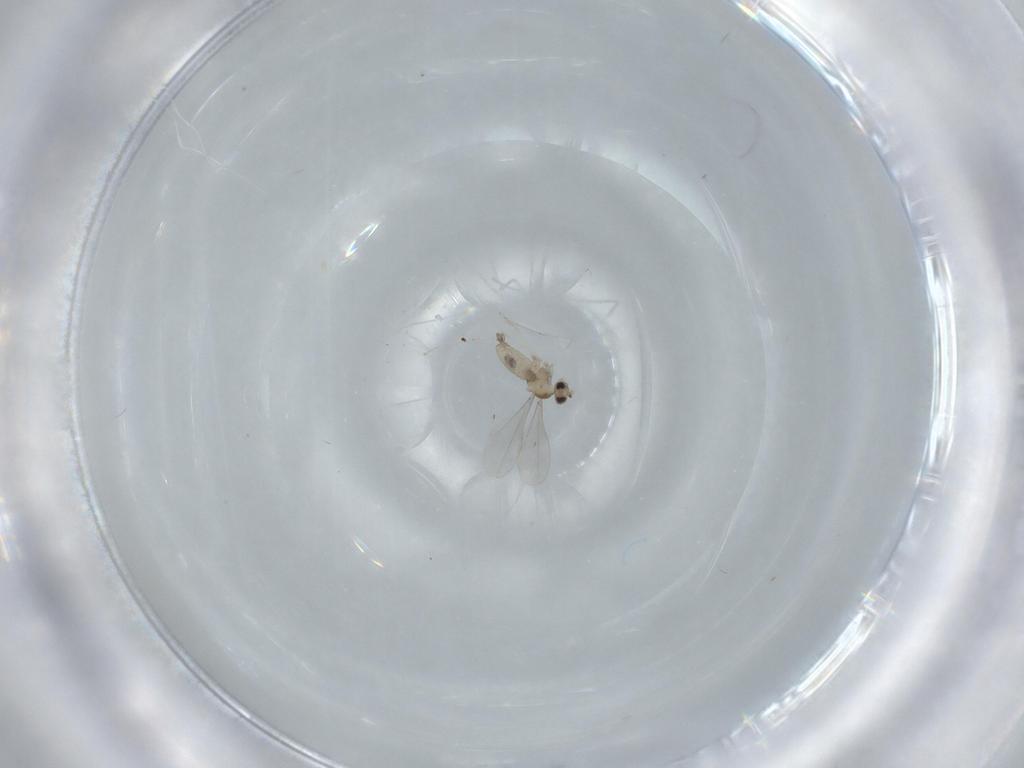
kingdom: Animalia
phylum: Arthropoda
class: Insecta
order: Diptera
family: Cecidomyiidae
